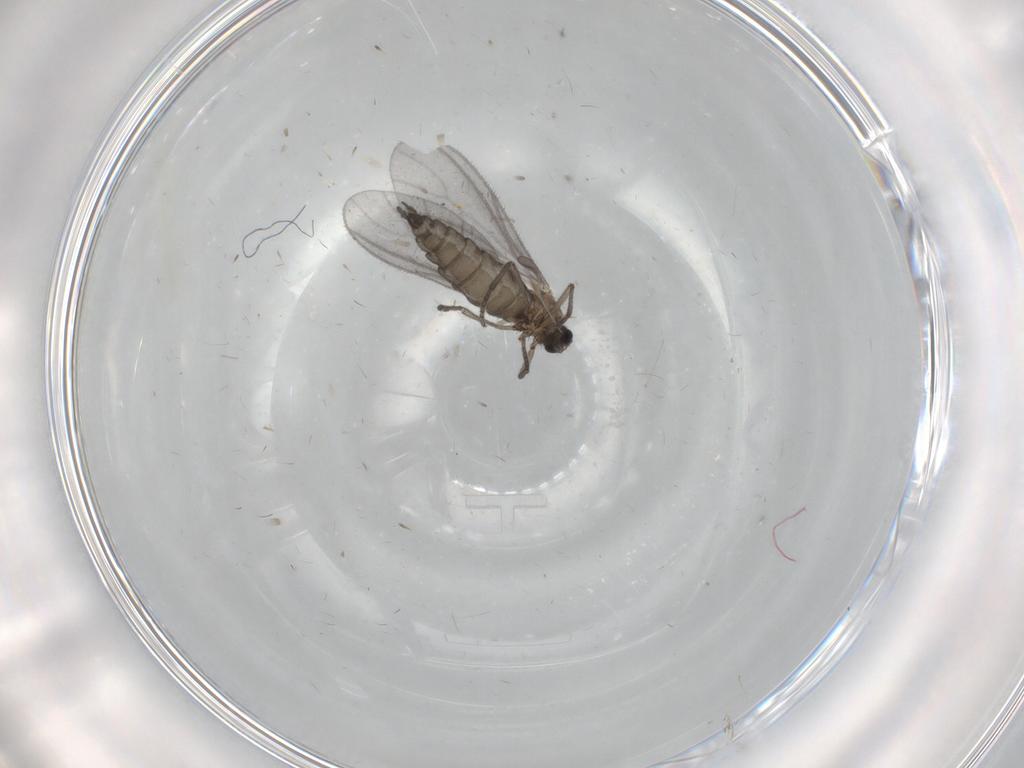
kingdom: Animalia
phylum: Arthropoda
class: Insecta
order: Diptera
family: Sciaridae
